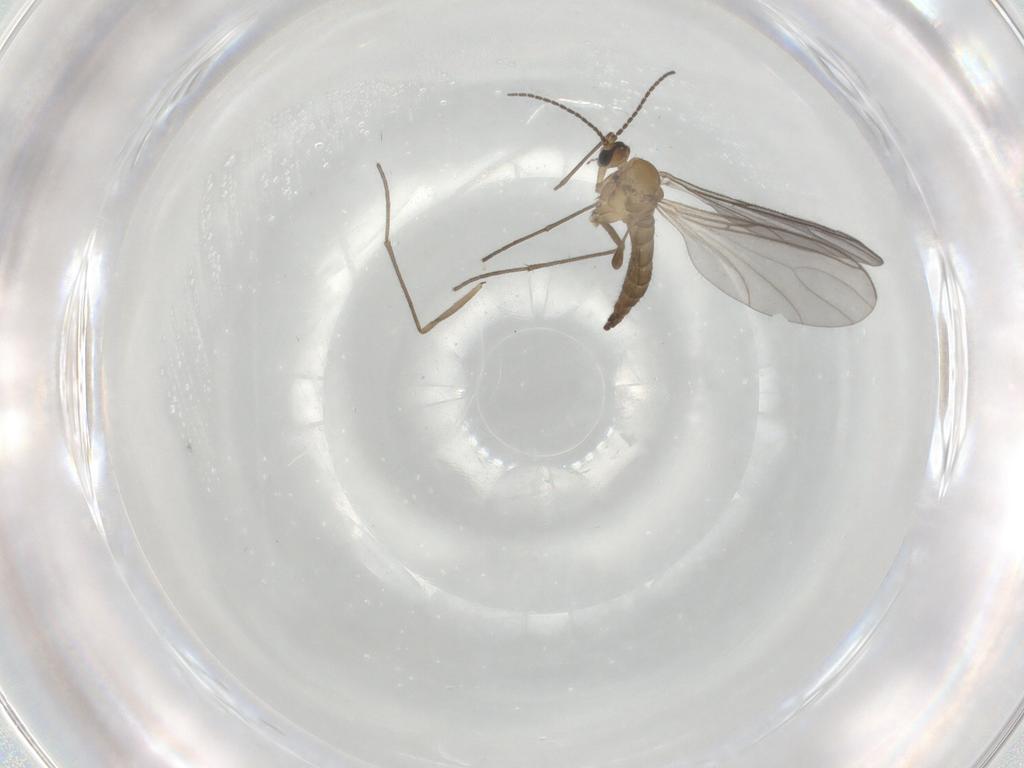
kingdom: Animalia
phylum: Arthropoda
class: Insecta
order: Diptera
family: Sciaridae
